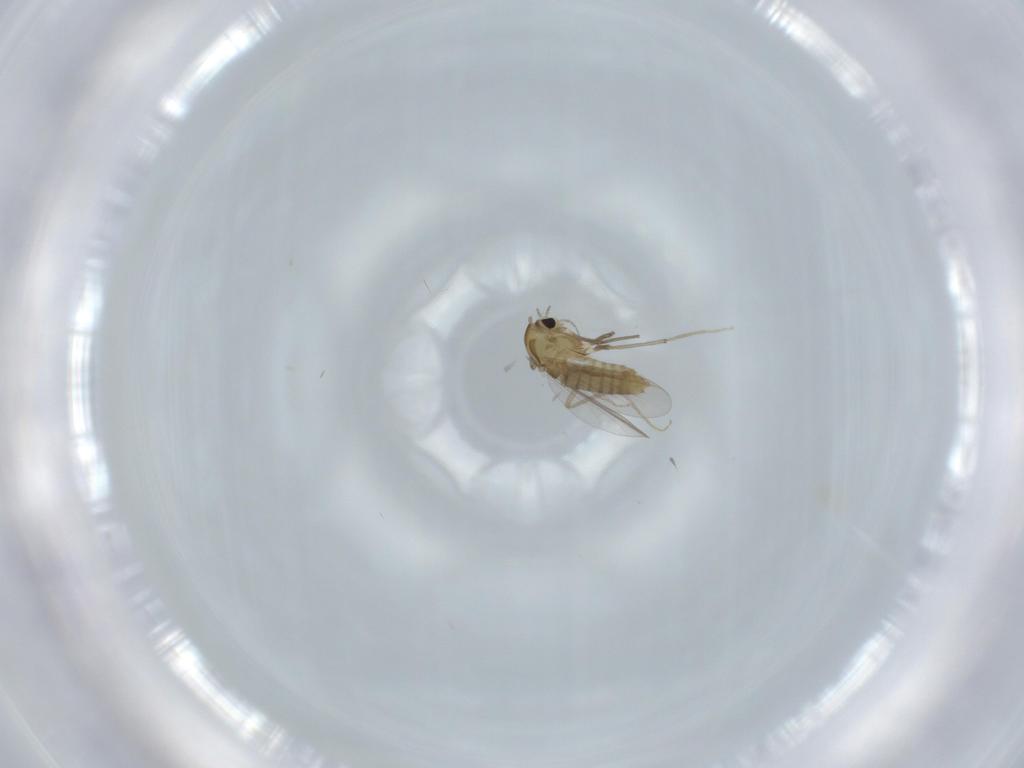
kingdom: Animalia
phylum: Arthropoda
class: Insecta
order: Diptera
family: Chironomidae
